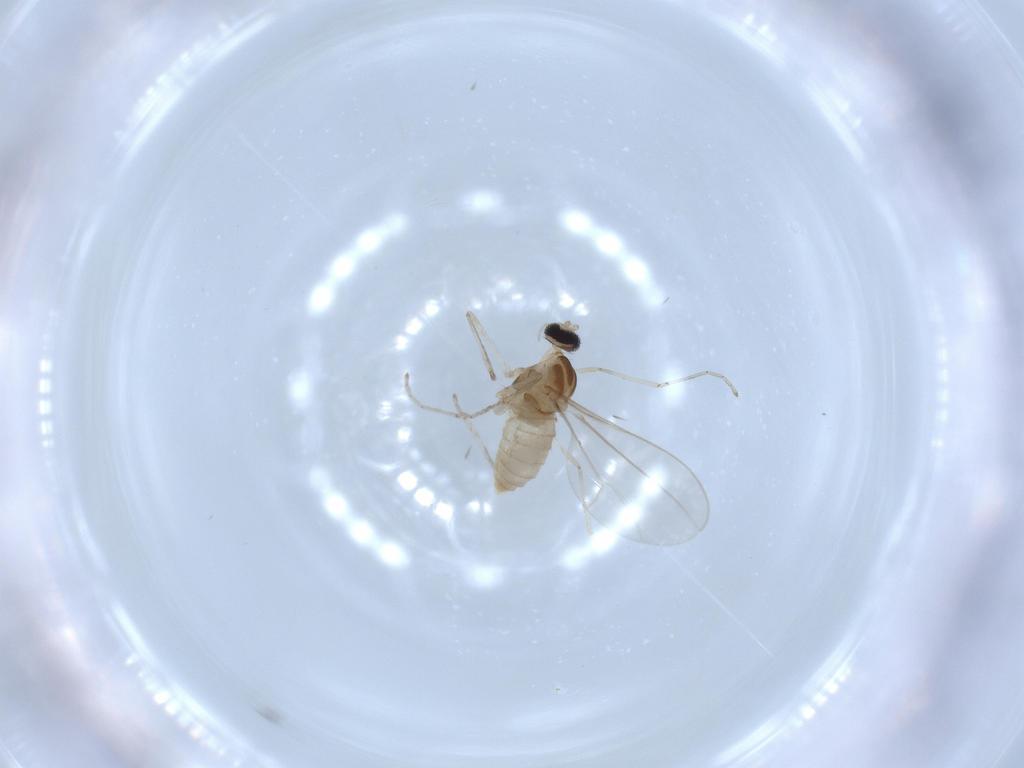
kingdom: Animalia
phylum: Arthropoda
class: Insecta
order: Diptera
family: Cecidomyiidae
